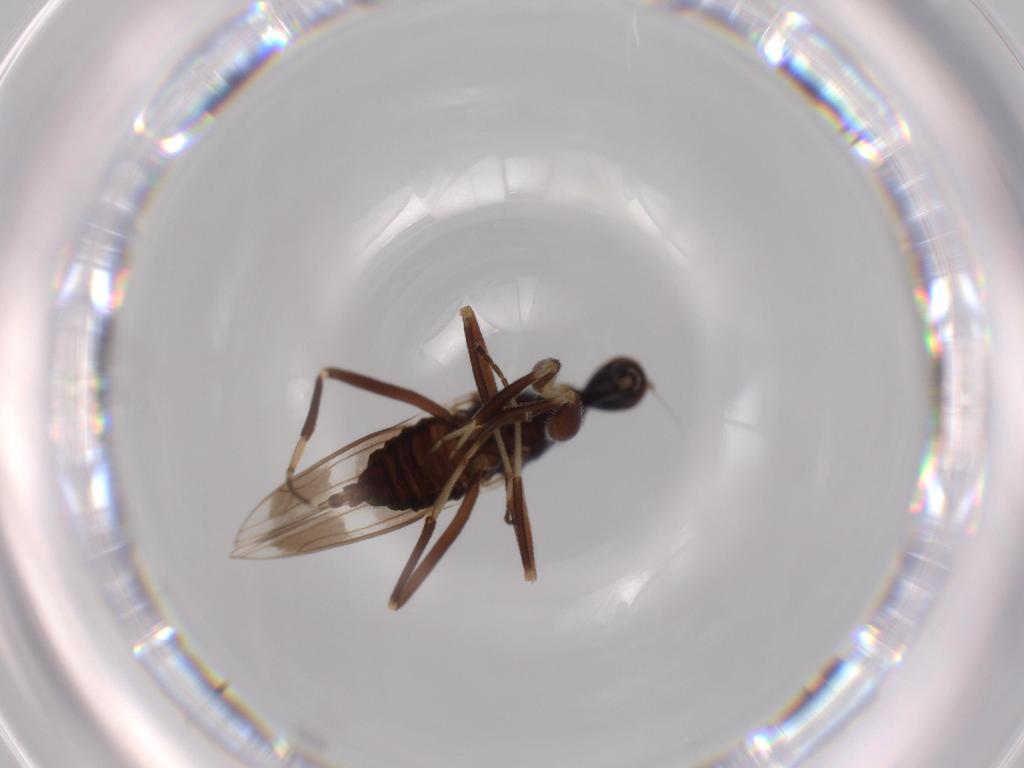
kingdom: Animalia
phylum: Arthropoda
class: Insecta
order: Diptera
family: Hybotidae
